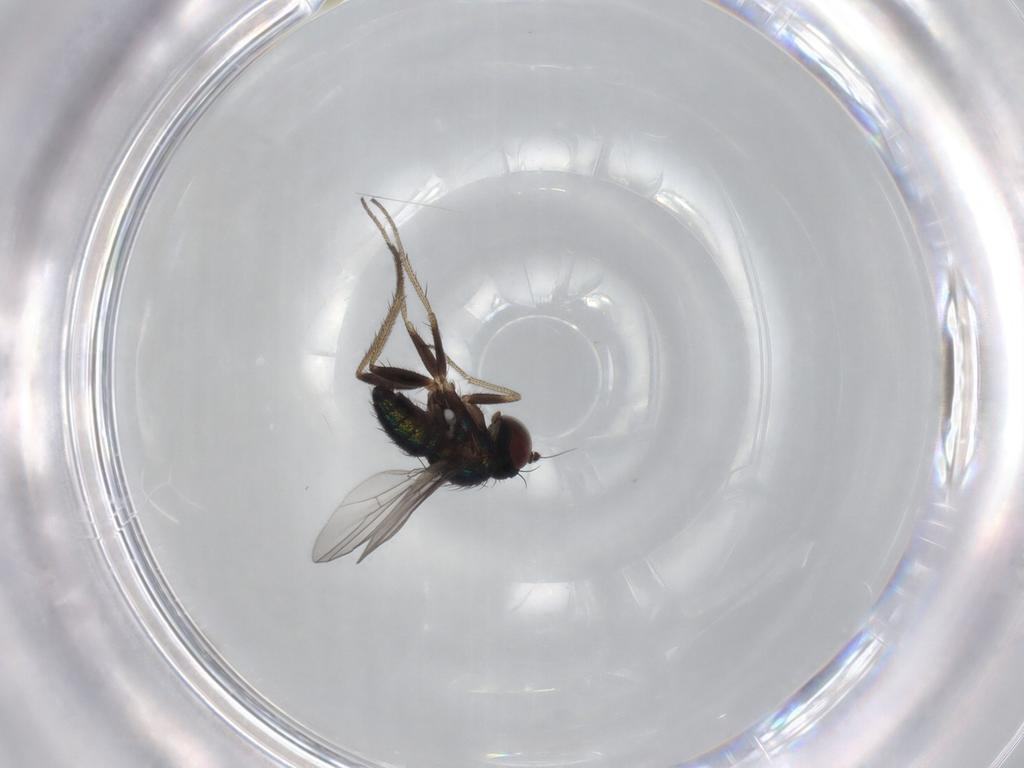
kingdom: Animalia
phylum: Arthropoda
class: Insecta
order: Diptera
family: Dolichopodidae
